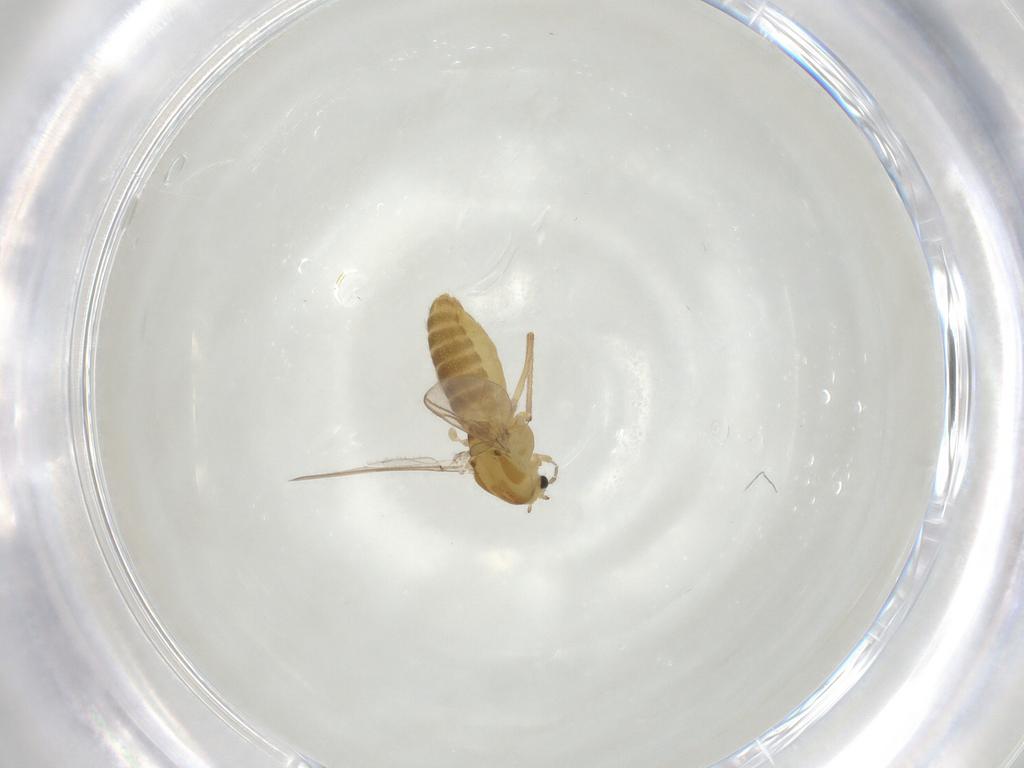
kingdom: Animalia
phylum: Arthropoda
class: Insecta
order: Diptera
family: Chironomidae
